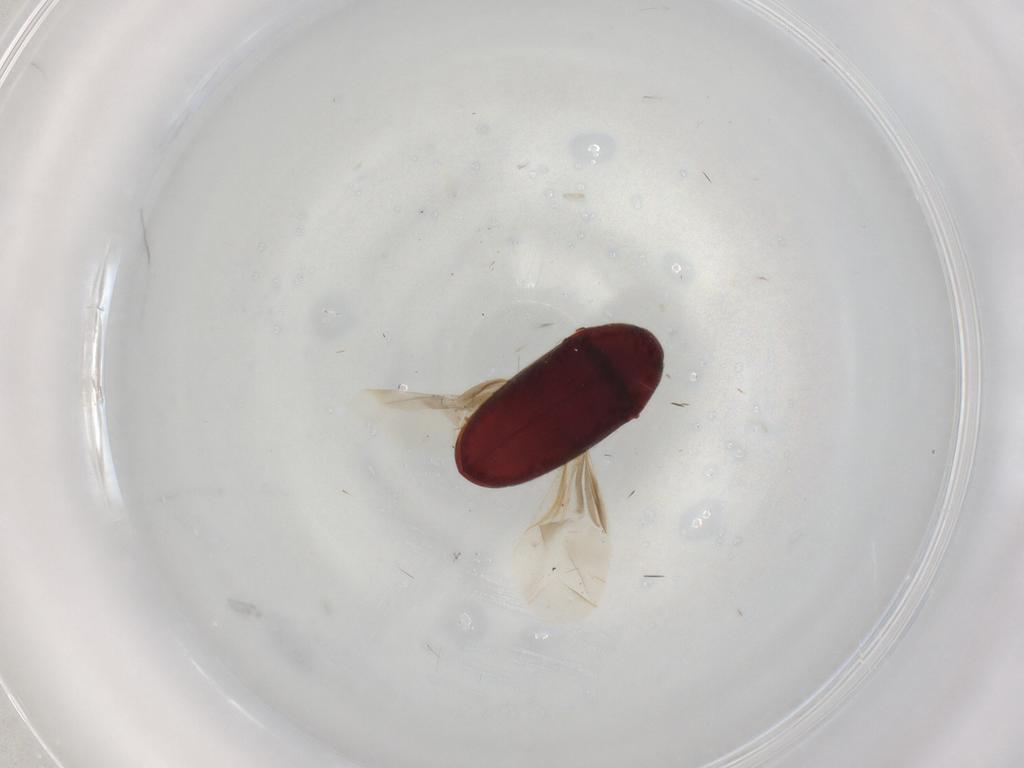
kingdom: Animalia
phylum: Arthropoda
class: Insecta
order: Coleoptera
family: Throscidae
